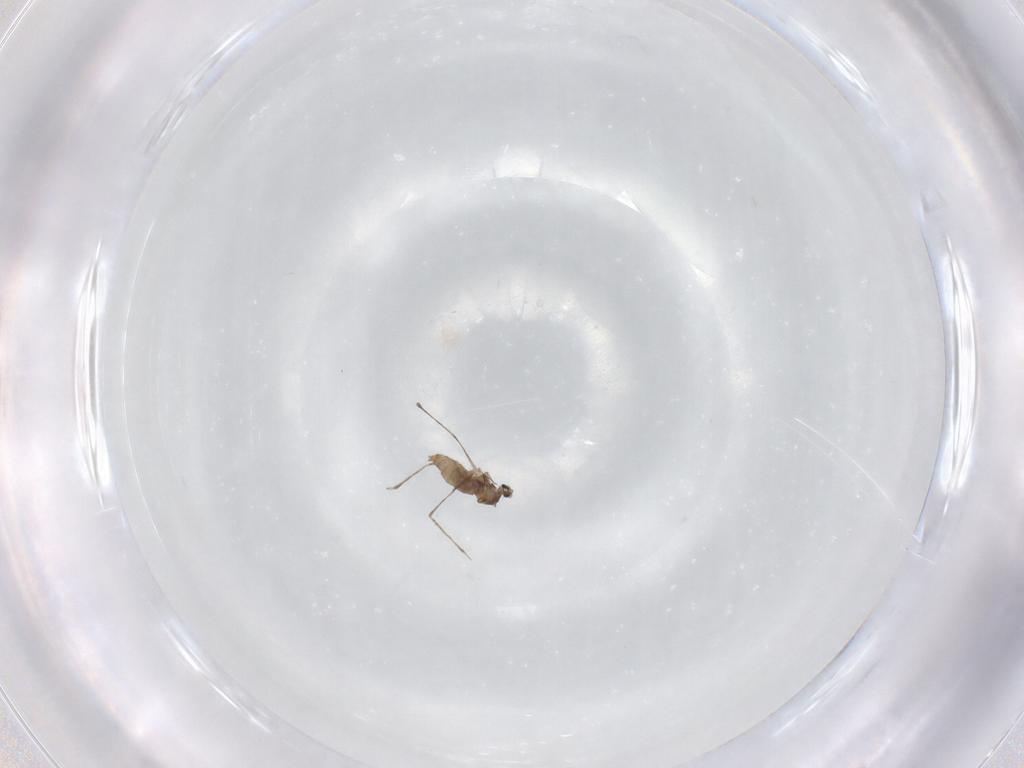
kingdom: Animalia
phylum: Arthropoda
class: Insecta
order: Diptera
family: Cecidomyiidae
